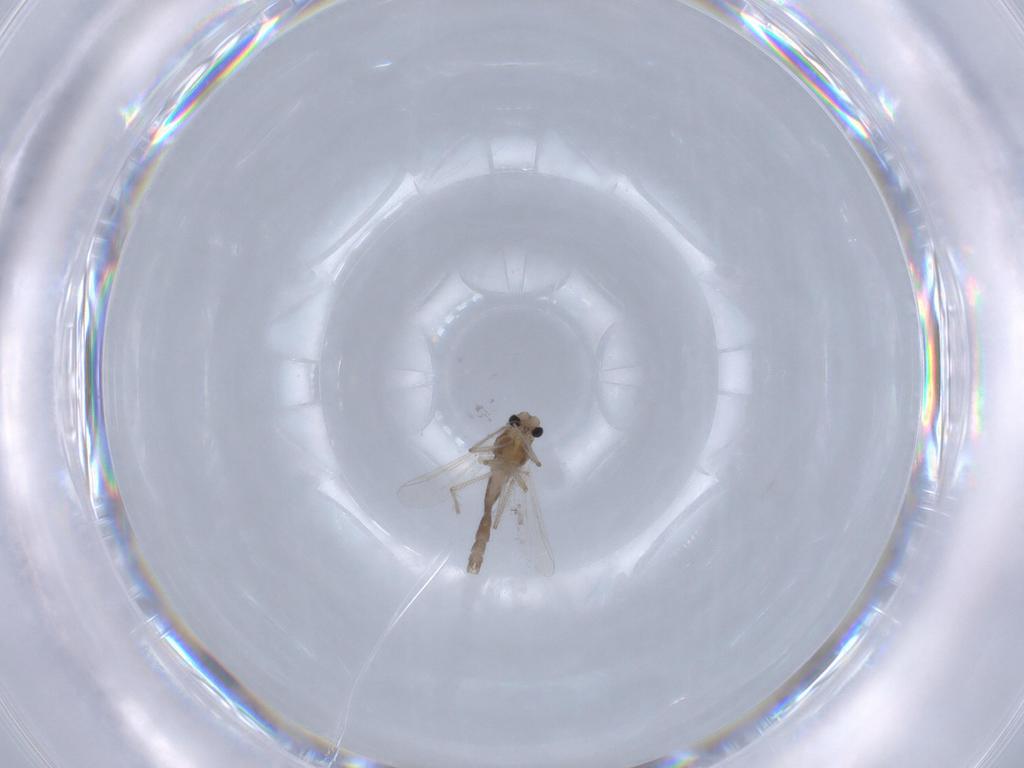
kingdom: Animalia
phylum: Arthropoda
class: Insecta
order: Diptera
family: Chironomidae
